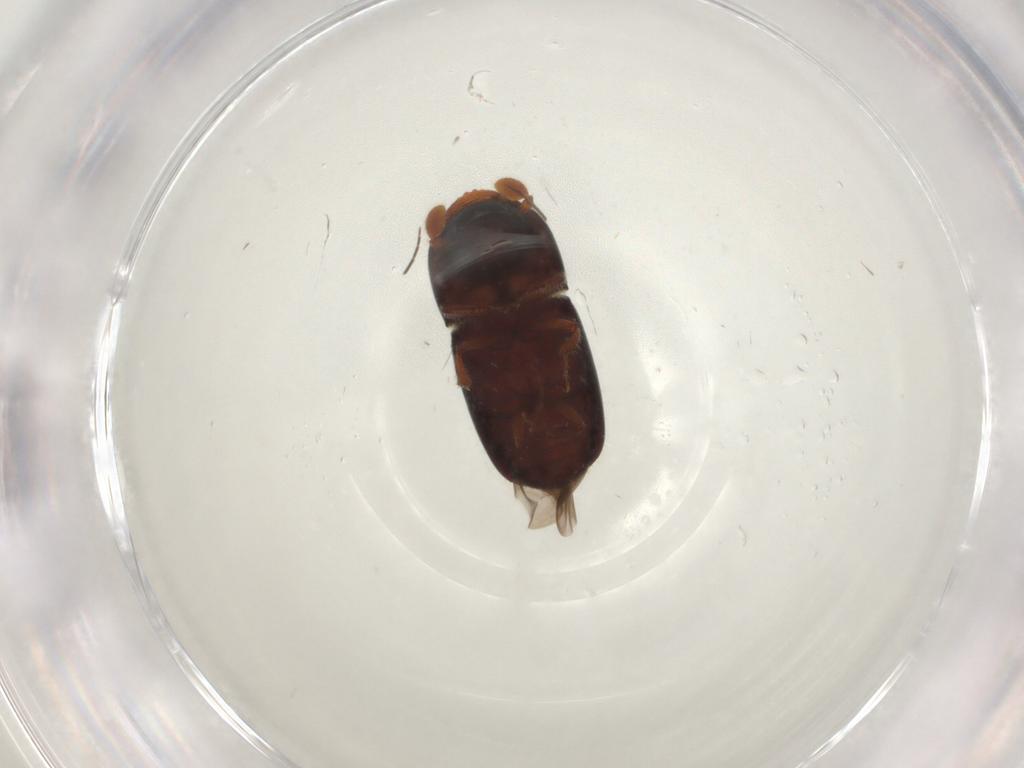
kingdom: Animalia
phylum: Arthropoda
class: Insecta
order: Coleoptera
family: Curculionidae
